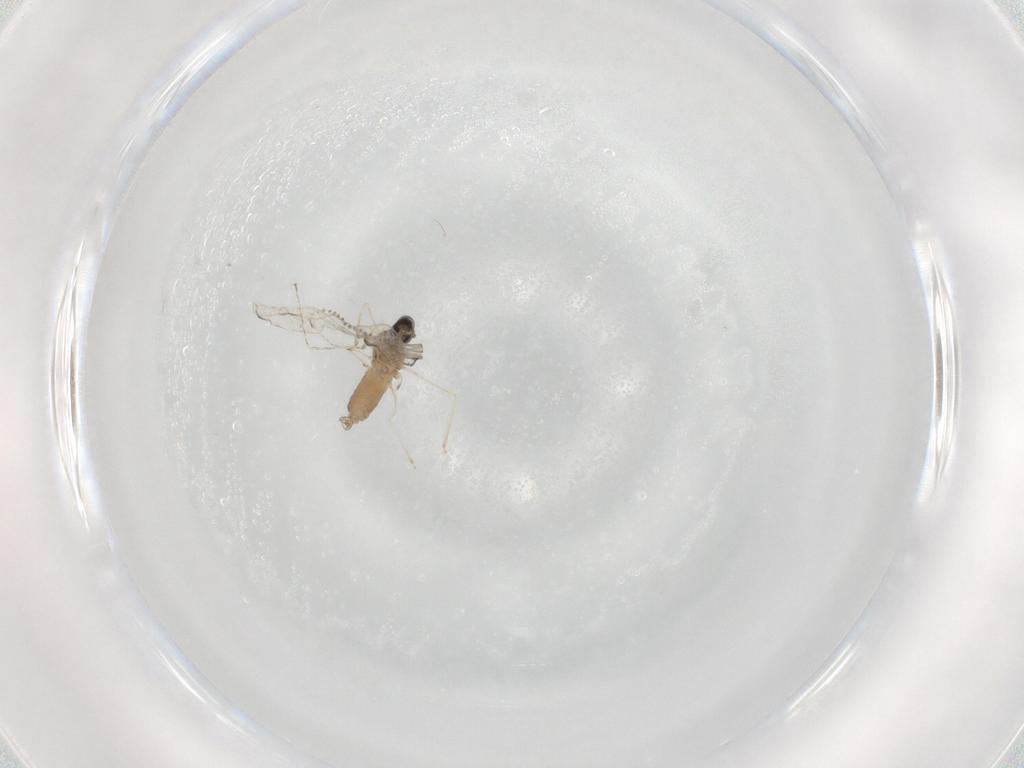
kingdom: Animalia
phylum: Arthropoda
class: Insecta
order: Diptera
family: Cecidomyiidae
